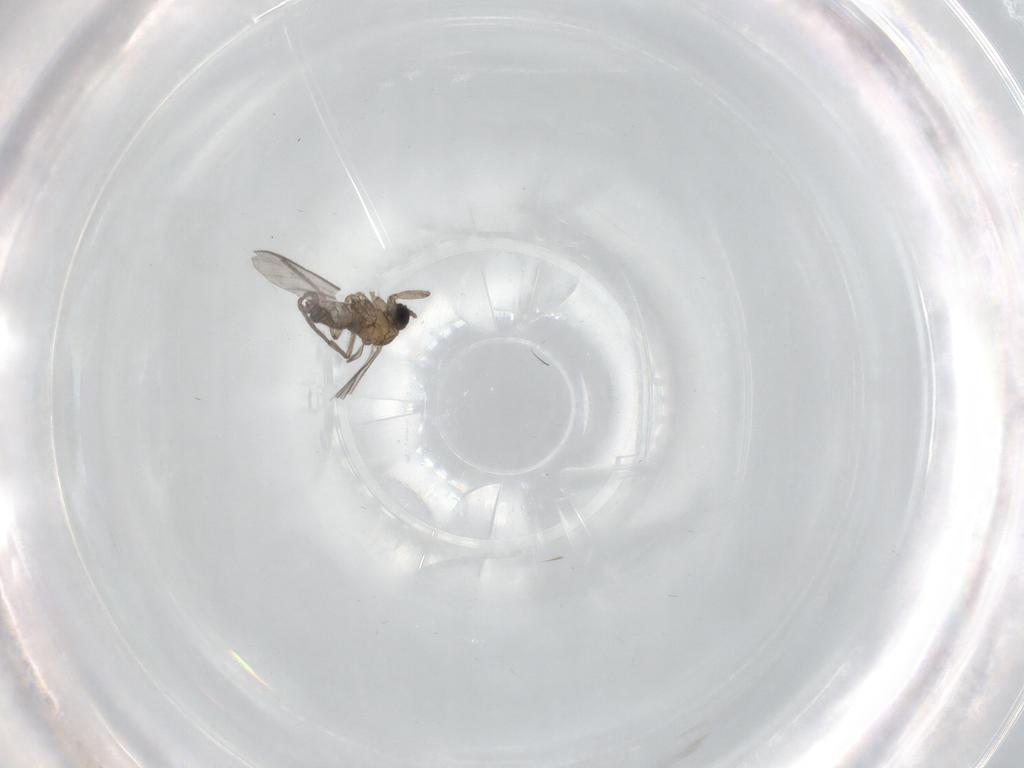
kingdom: Animalia
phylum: Arthropoda
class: Insecta
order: Diptera
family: Sciaridae
